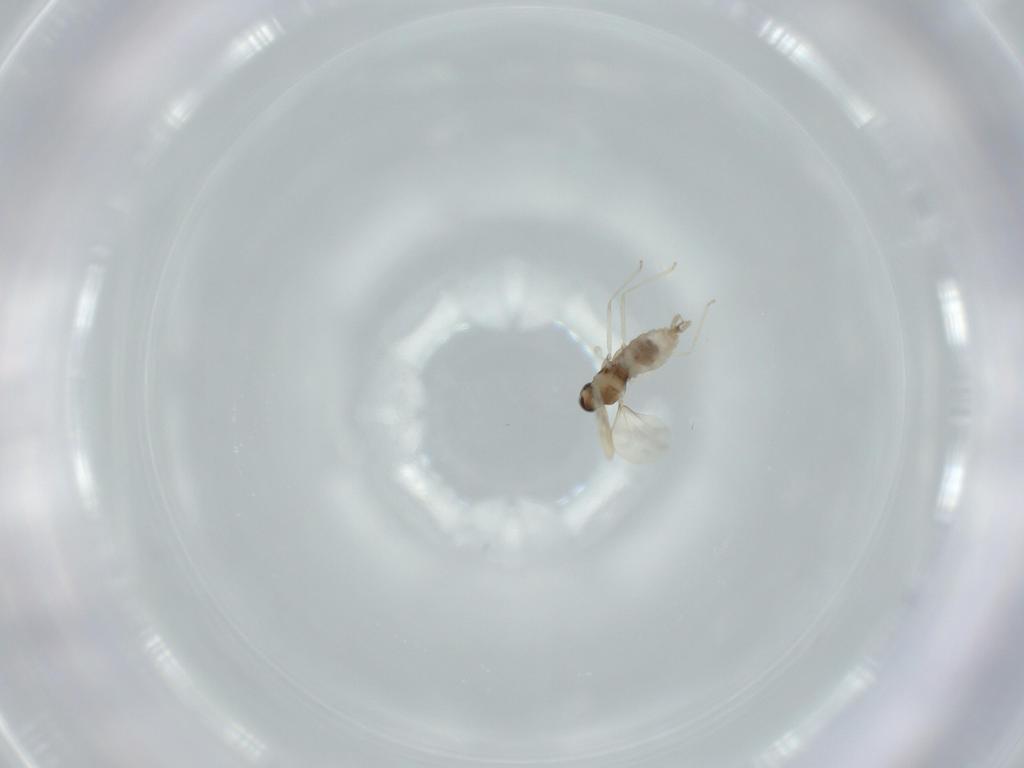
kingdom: Animalia
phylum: Arthropoda
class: Insecta
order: Diptera
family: Cecidomyiidae
